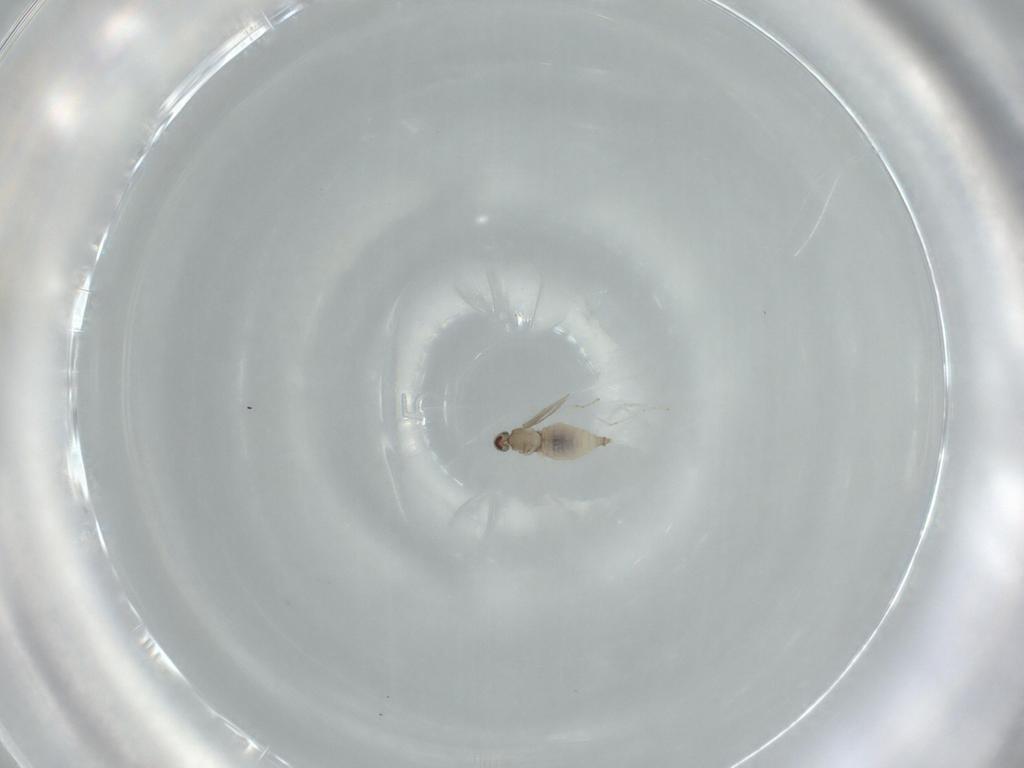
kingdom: Animalia
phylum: Arthropoda
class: Insecta
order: Diptera
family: Cecidomyiidae
